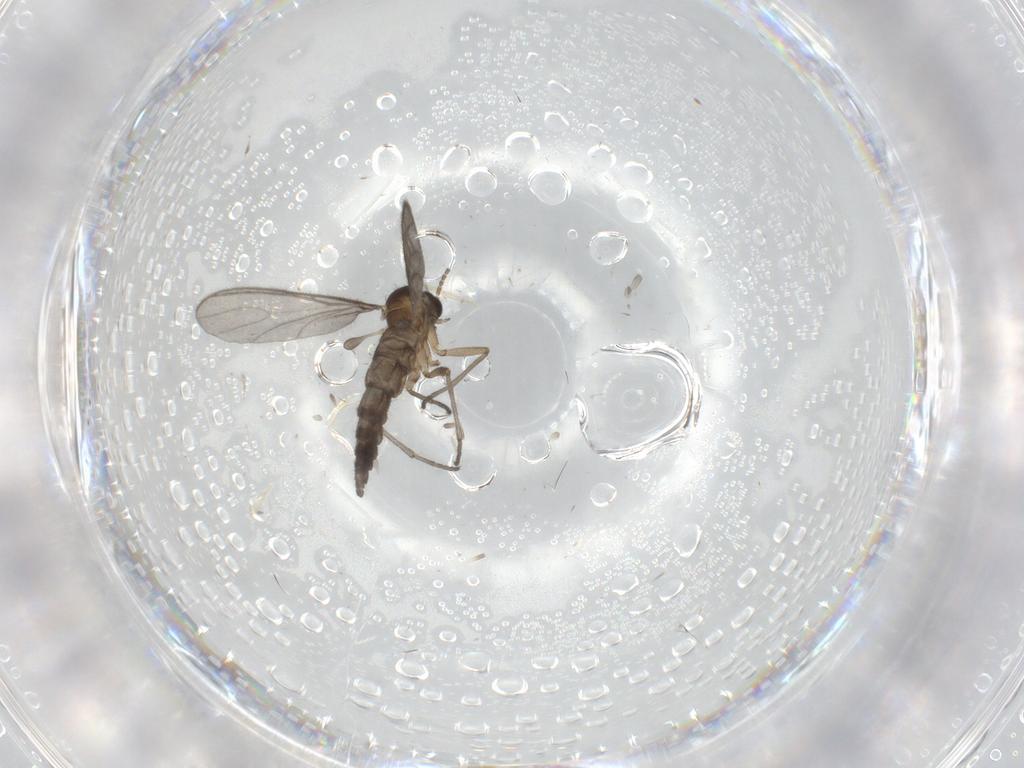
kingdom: Animalia
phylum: Arthropoda
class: Insecta
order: Diptera
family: Sciaridae
